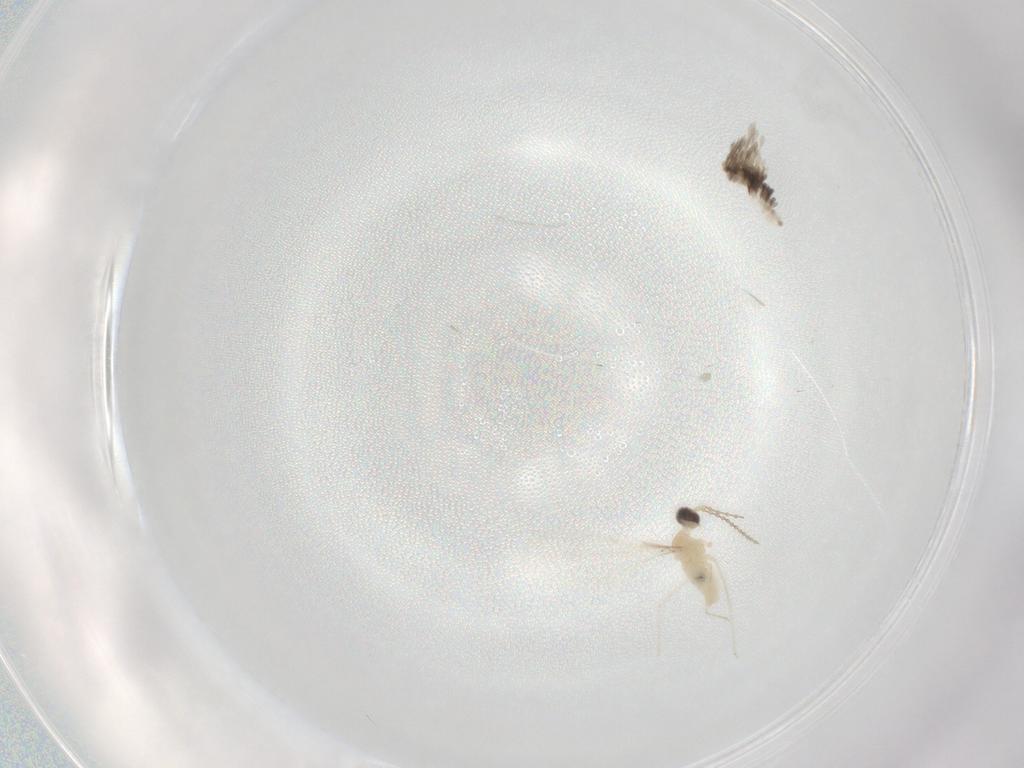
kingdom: Animalia
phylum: Arthropoda
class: Insecta
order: Diptera
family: Cecidomyiidae
